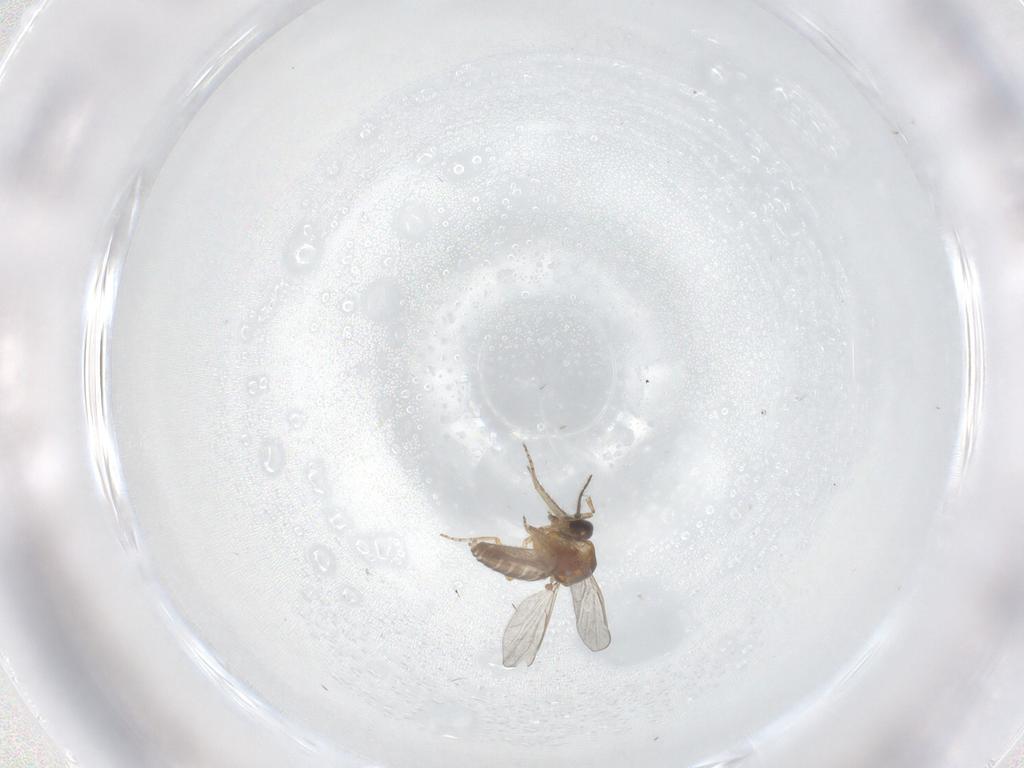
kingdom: Animalia
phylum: Arthropoda
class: Insecta
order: Diptera
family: Ceratopogonidae
